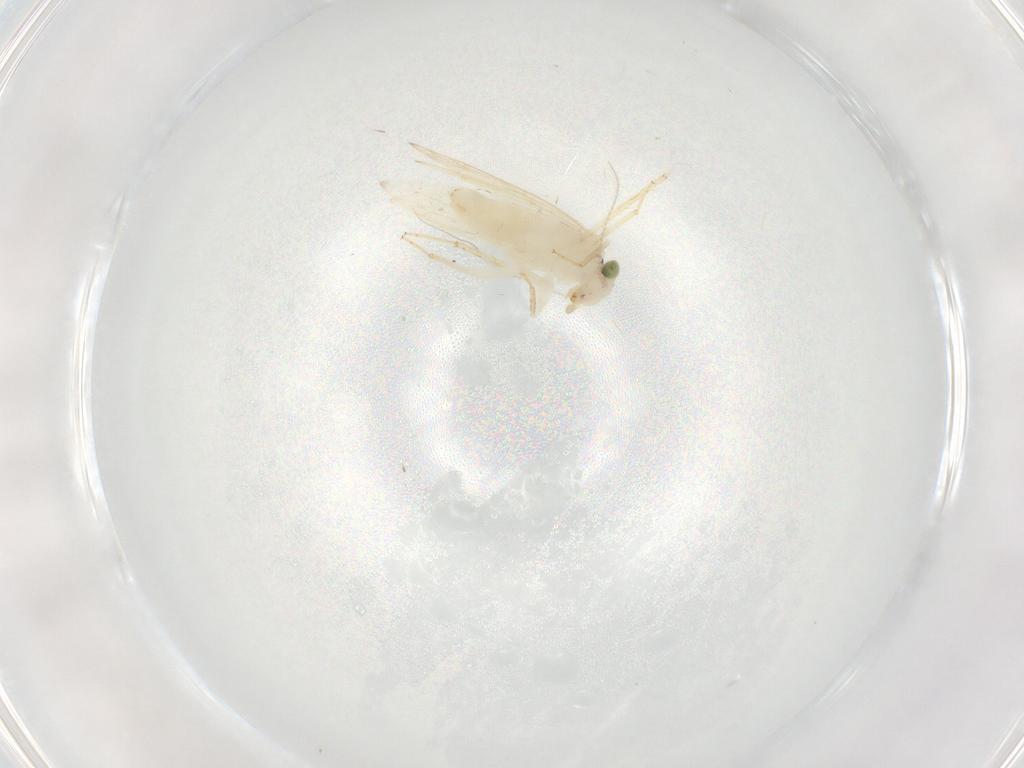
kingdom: Animalia
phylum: Arthropoda
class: Insecta
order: Psocodea
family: Lepidopsocidae
